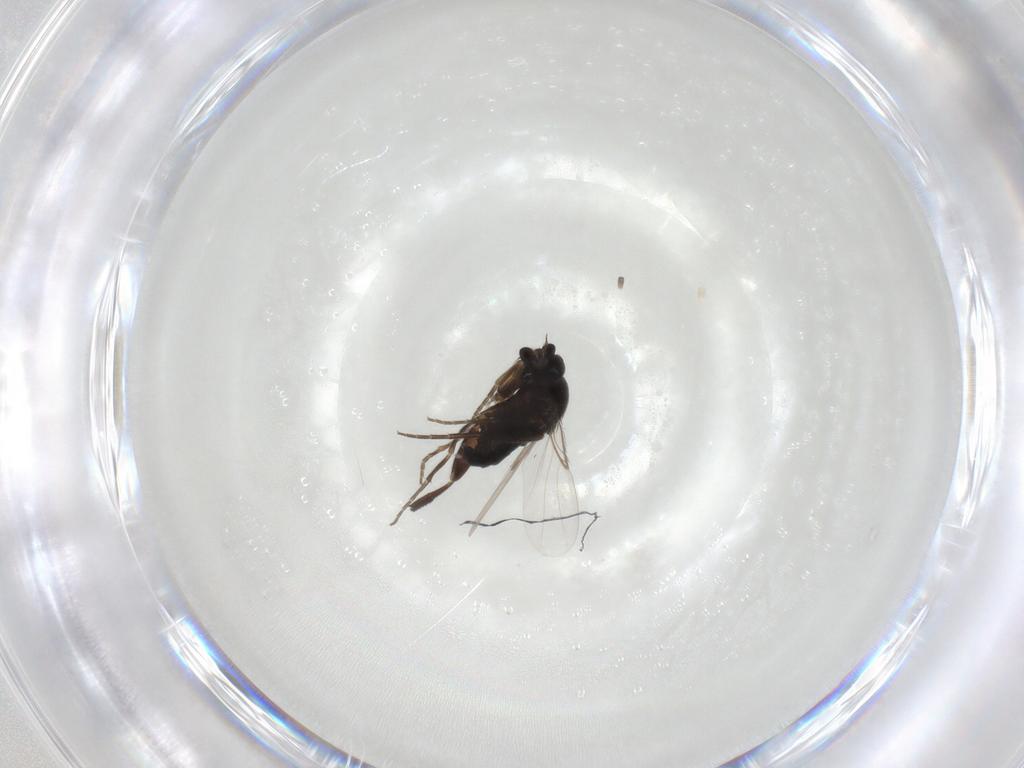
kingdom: Animalia
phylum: Arthropoda
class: Insecta
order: Diptera
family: Phoridae
